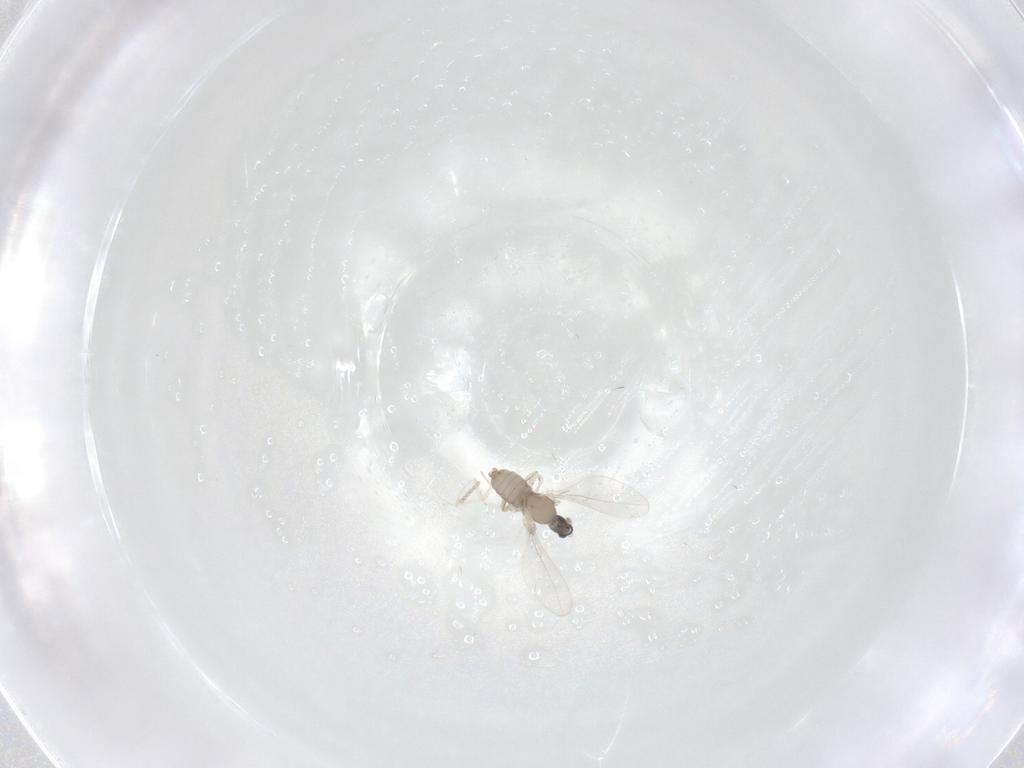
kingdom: Animalia
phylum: Arthropoda
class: Insecta
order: Diptera
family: Cecidomyiidae
